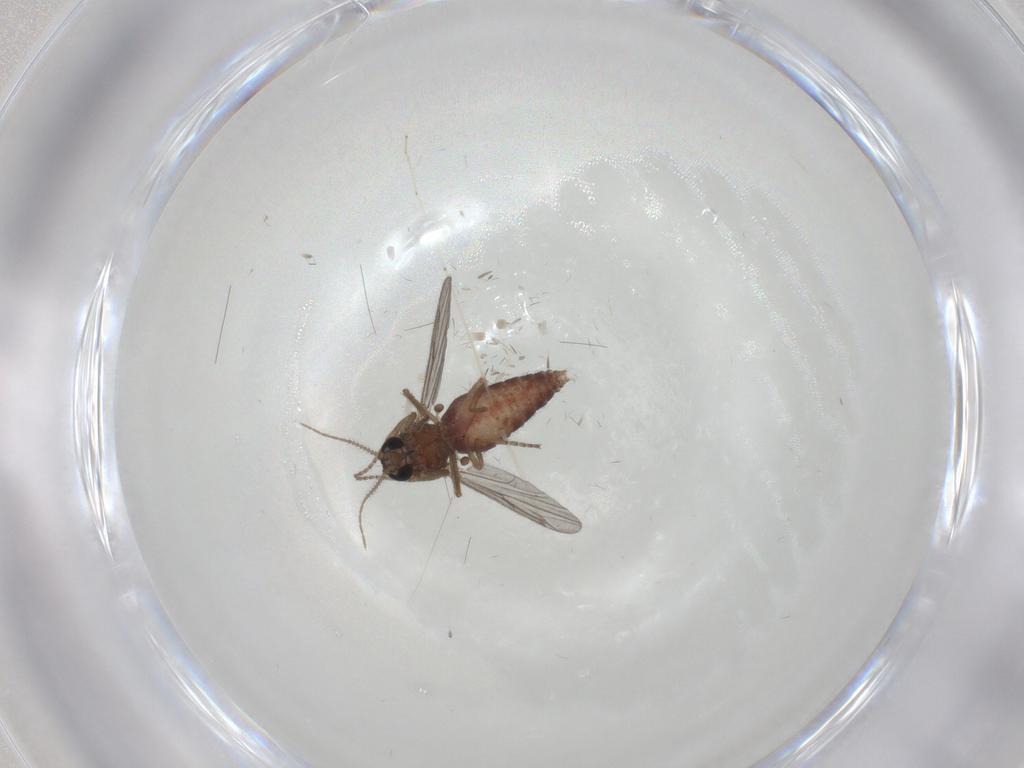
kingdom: Animalia
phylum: Arthropoda
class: Insecta
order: Diptera
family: Ceratopogonidae
